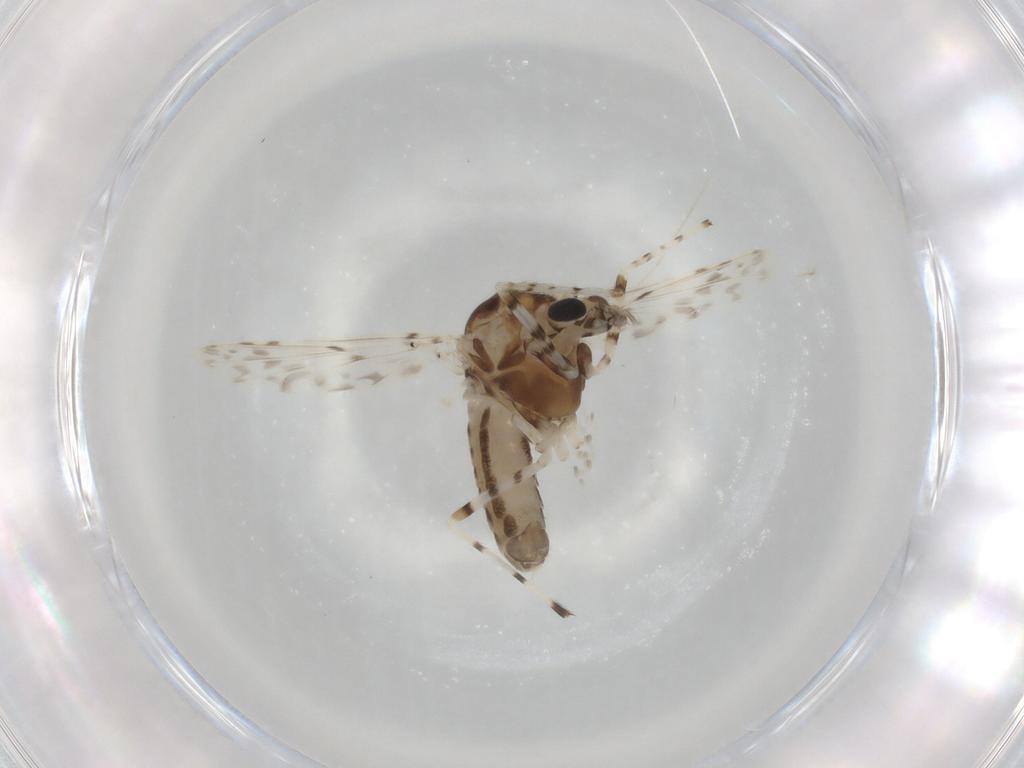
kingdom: Animalia
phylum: Arthropoda
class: Insecta
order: Diptera
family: Chironomidae
